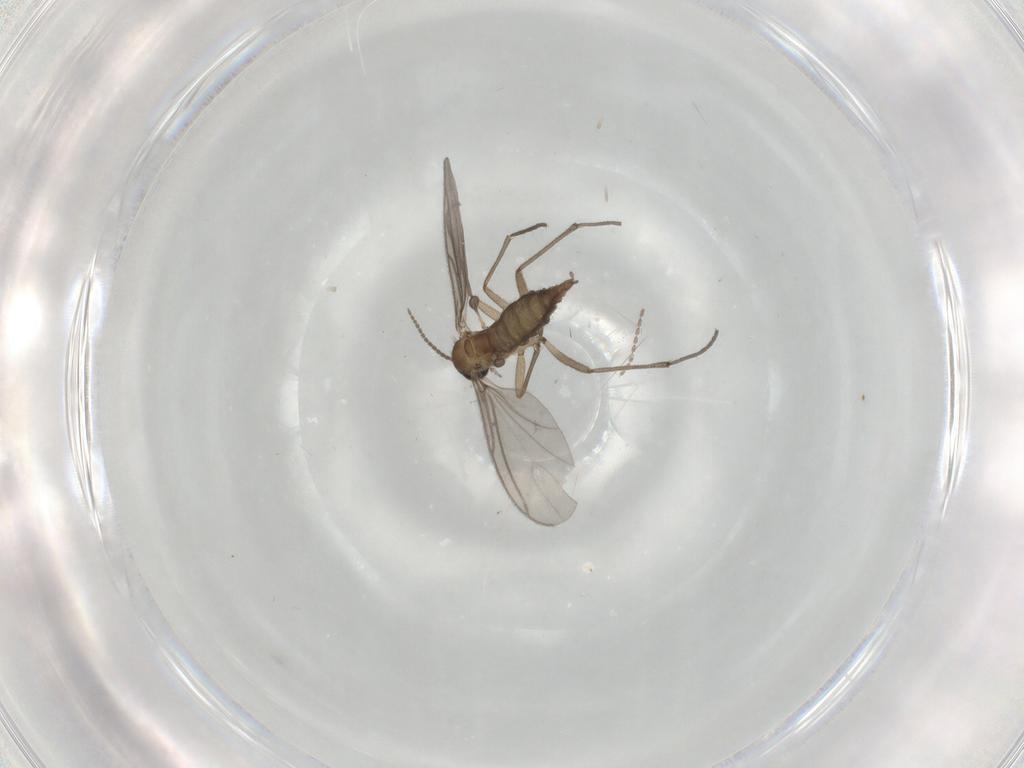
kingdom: Animalia
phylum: Arthropoda
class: Insecta
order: Diptera
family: Sciaridae
